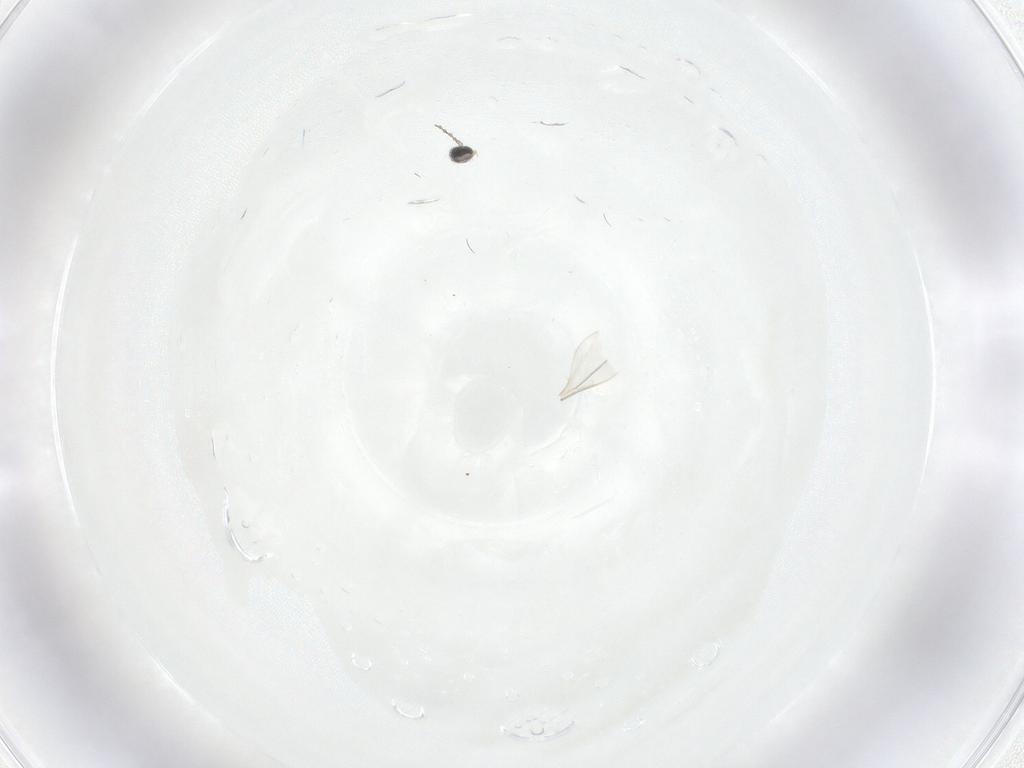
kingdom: Animalia
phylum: Arthropoda
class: Insecta
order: Diptera
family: Cecidomyiidae
